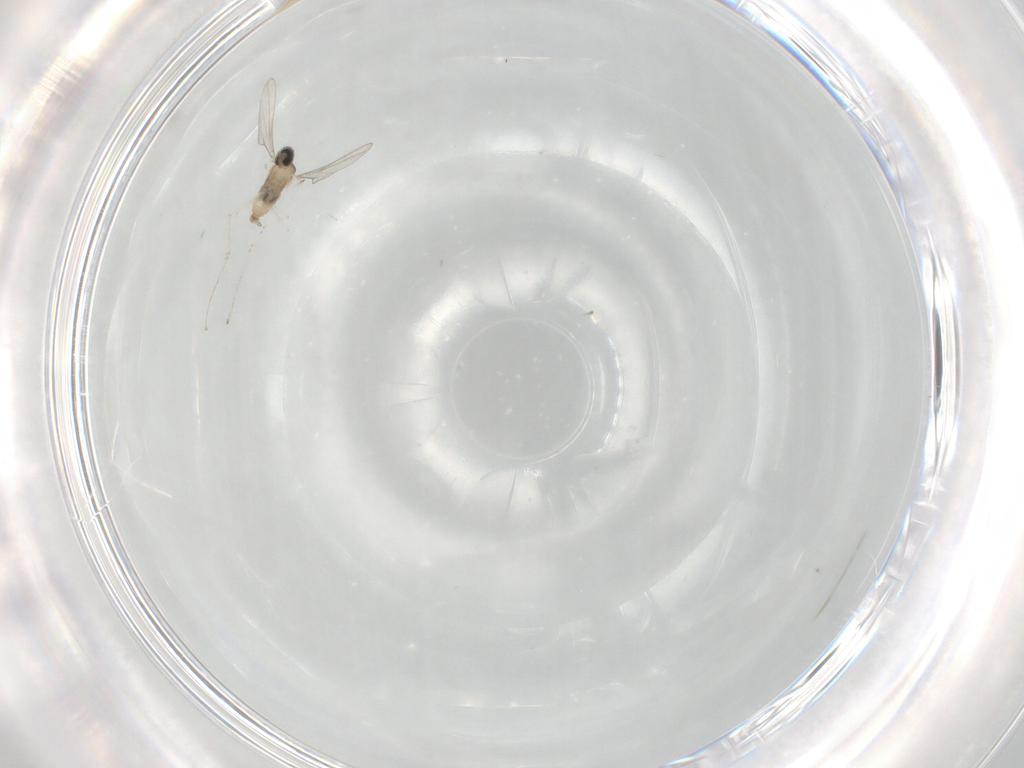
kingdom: Animalia
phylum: Arthropoda
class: Insecta
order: Diptera
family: Cecidomyiidae
